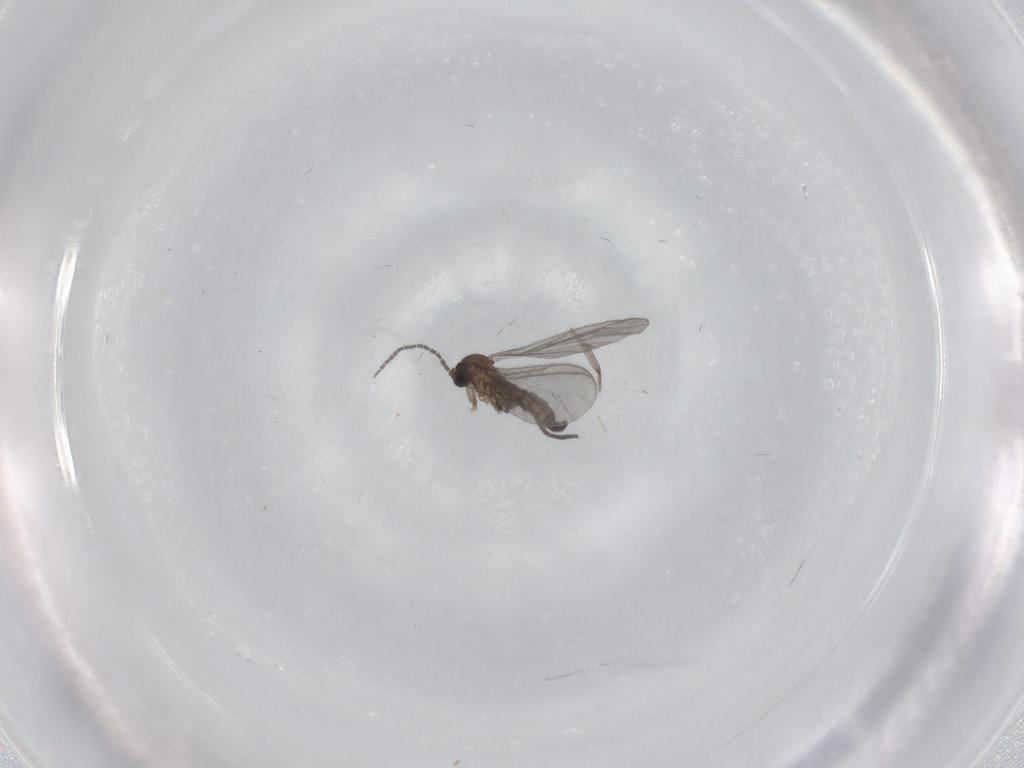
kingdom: Animalia
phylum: Arthropoda
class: Insecta
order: Diptera
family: Sciaridae
